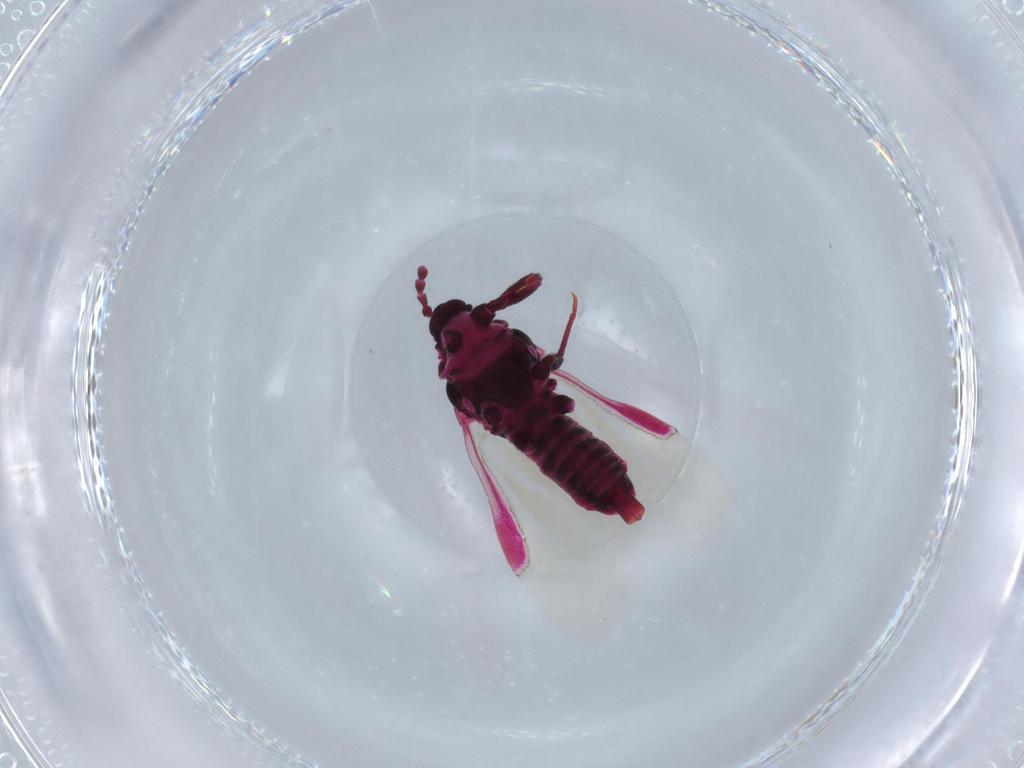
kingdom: Animalia
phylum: Arthropoda
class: Insecta
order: Hemiptera
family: Coccoidea_incertae_sedis
